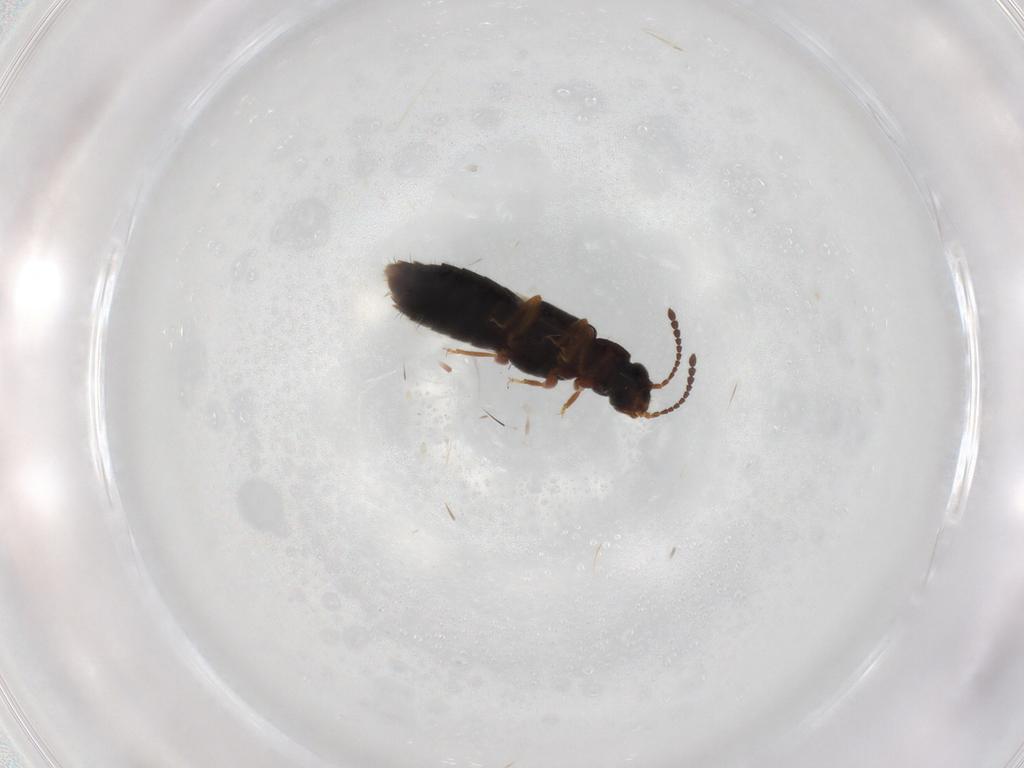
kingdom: Animalia
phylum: Arthropoda
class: Insecta
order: Coleoptera
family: Staphylinidae
